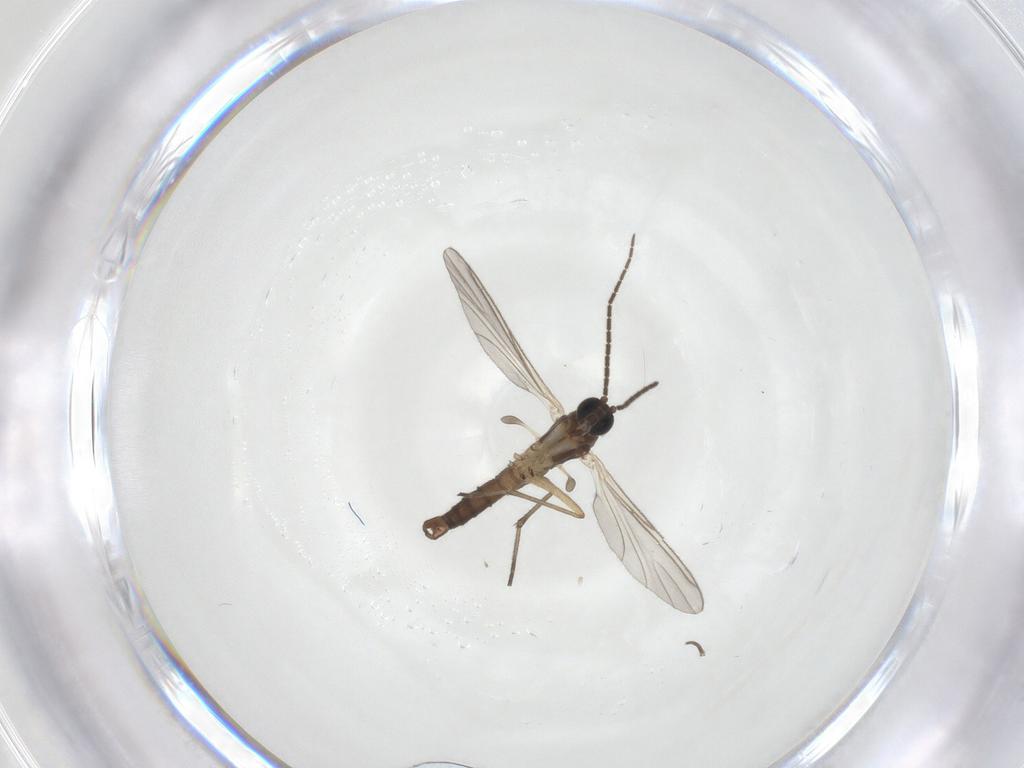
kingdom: Animalia
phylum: Arthropoda
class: Insecta
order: Diptera
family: Sciaridae
